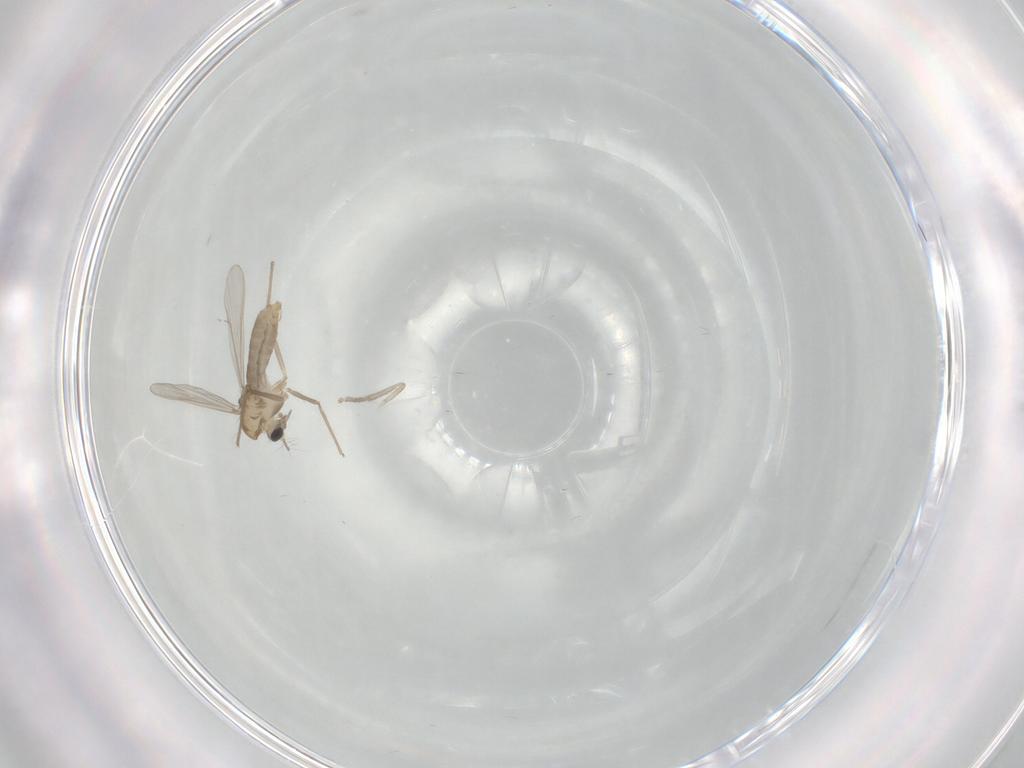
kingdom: Animalia
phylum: Arthropoda
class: Insecta
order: Diptera
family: Chironomidae
